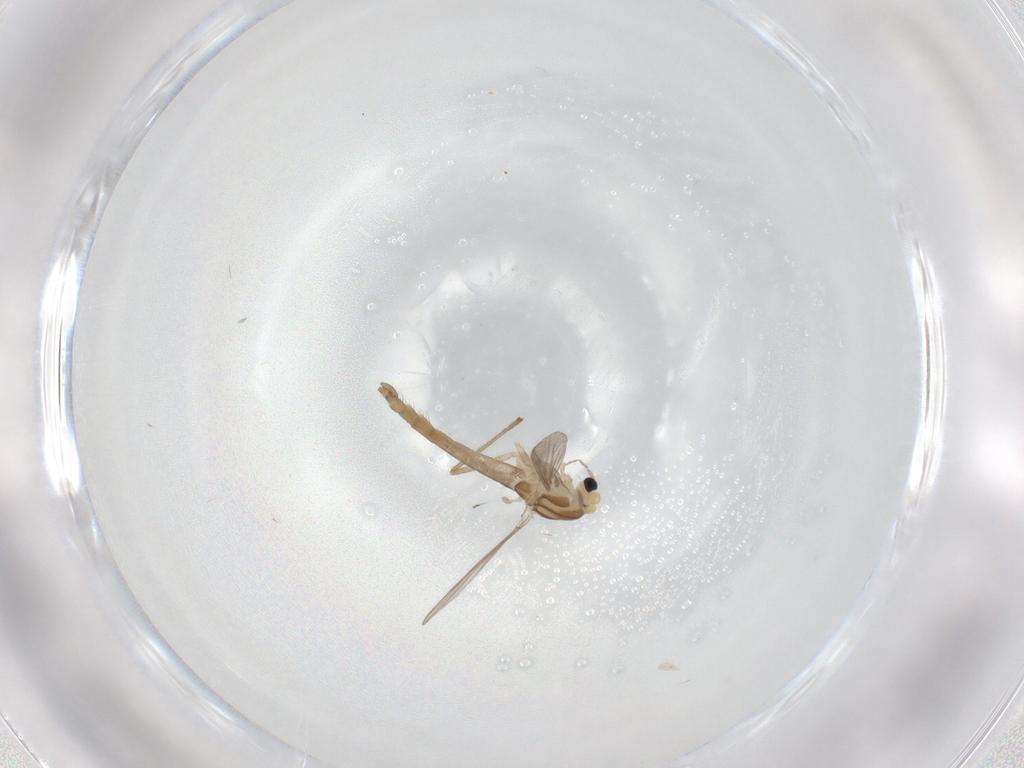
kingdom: Animalia
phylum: Arthropoda
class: Insecta
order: Diptera
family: Chironomidae
